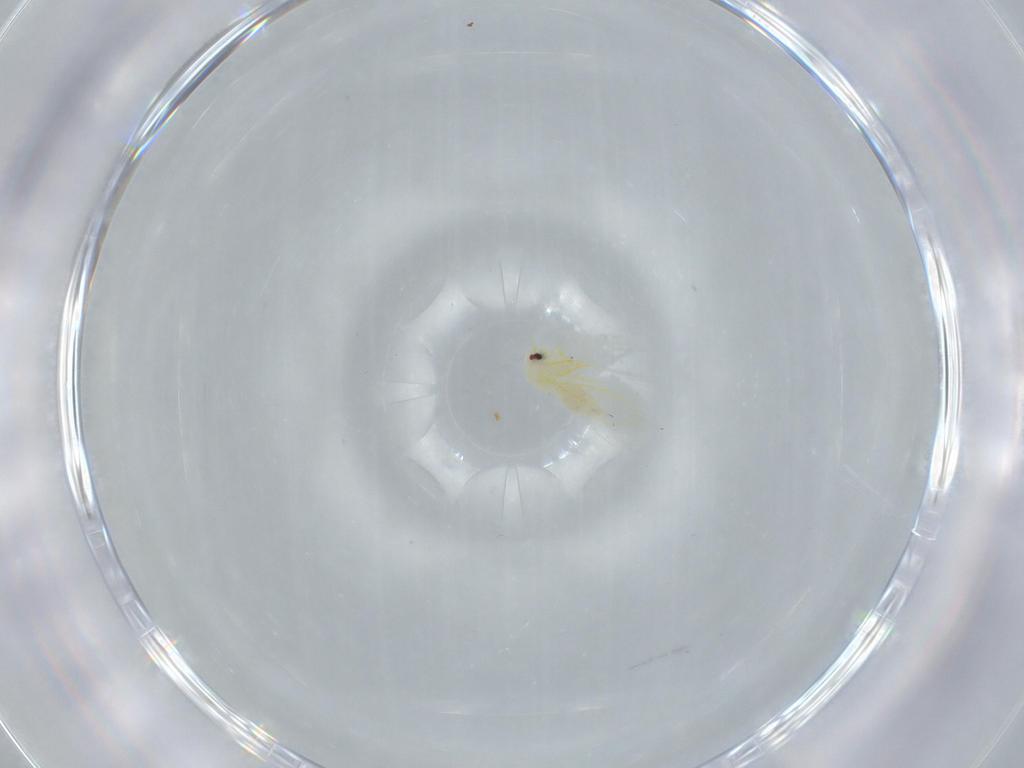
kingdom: Animalia
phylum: Arthropoda
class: Insecta
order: Hemiptera
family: Aleyrodidae
